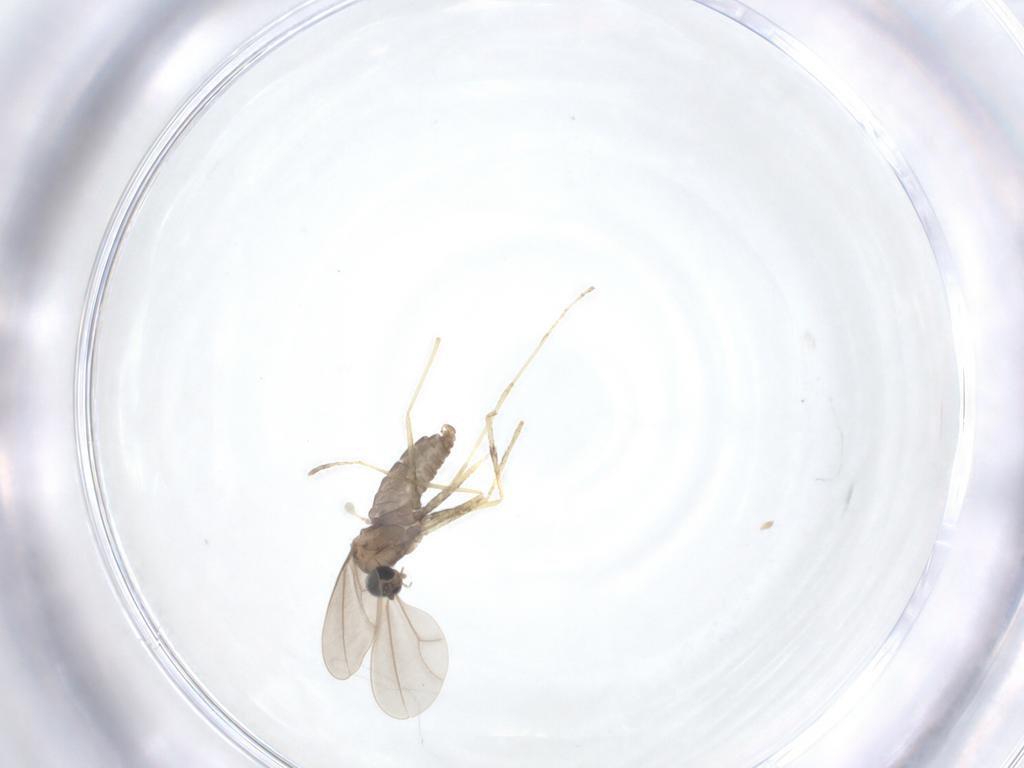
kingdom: Animalia
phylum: Arthropoda
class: Insecta
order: Diptera
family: Cecidomyiidae
